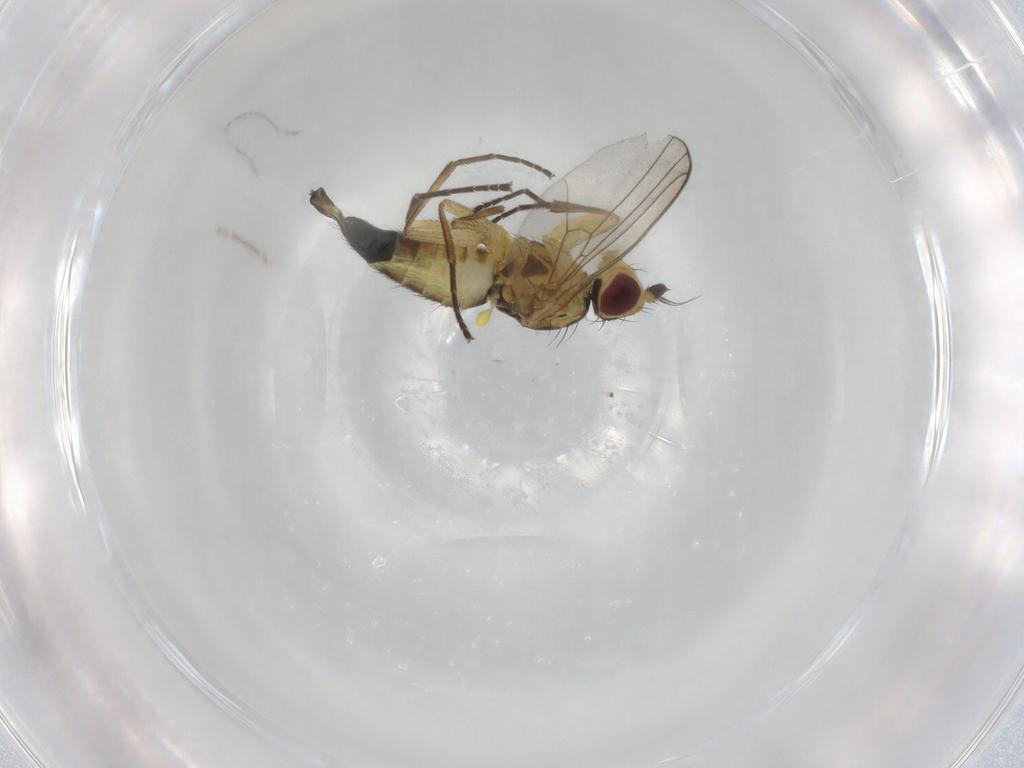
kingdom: Animalia
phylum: Arthropoda
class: Insecta
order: Diptera
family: Agromyzidae
